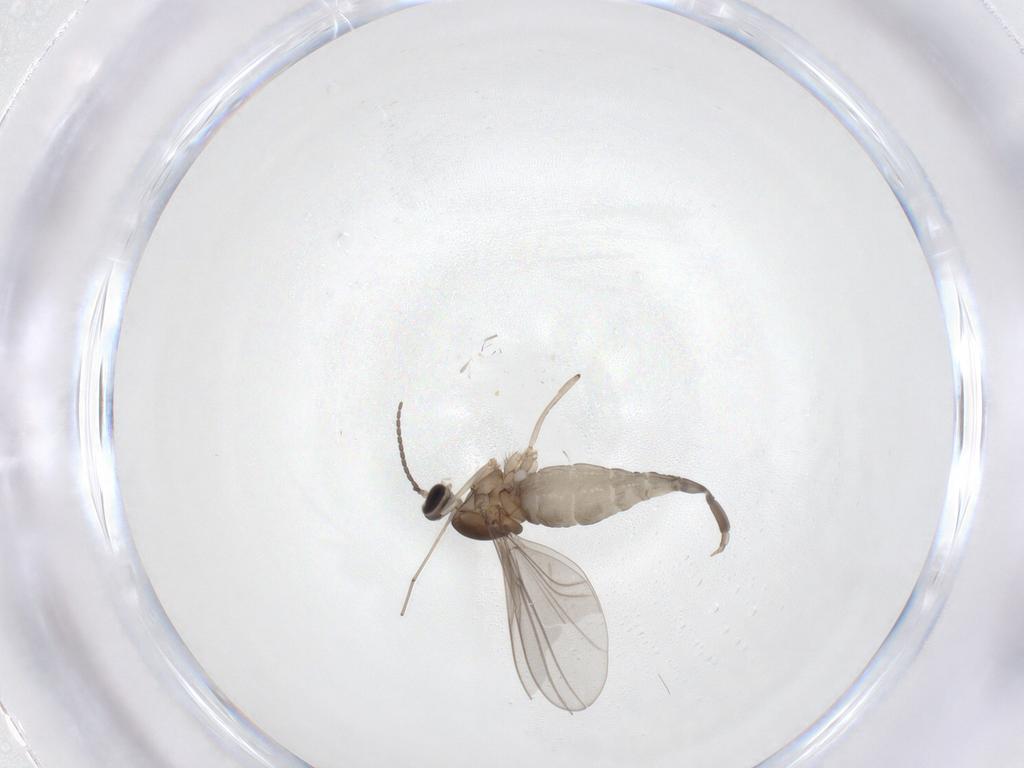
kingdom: Animalia
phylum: Arthropoda
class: Insecta
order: Diptera
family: Cecidomyiidae
